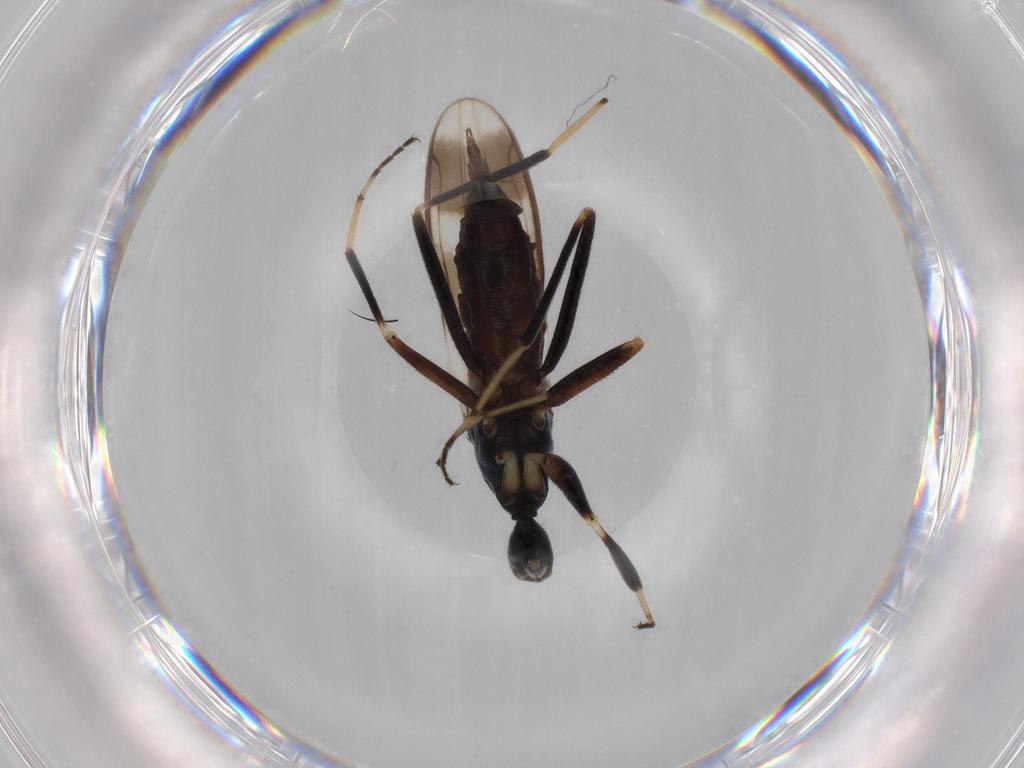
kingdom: Animalia
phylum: Arthropoda
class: Insecta
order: Diptera
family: Hybotidae
